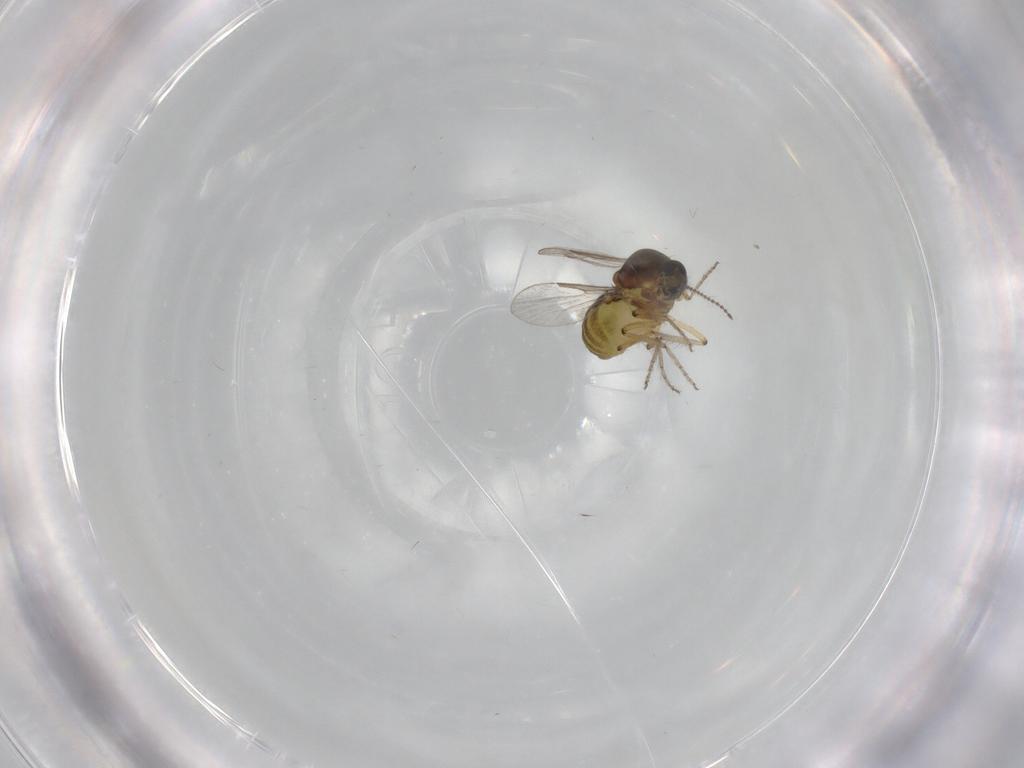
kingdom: Animalia
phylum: Arthropoda
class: Insecta
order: Diptera
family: Ceratopogonidae
